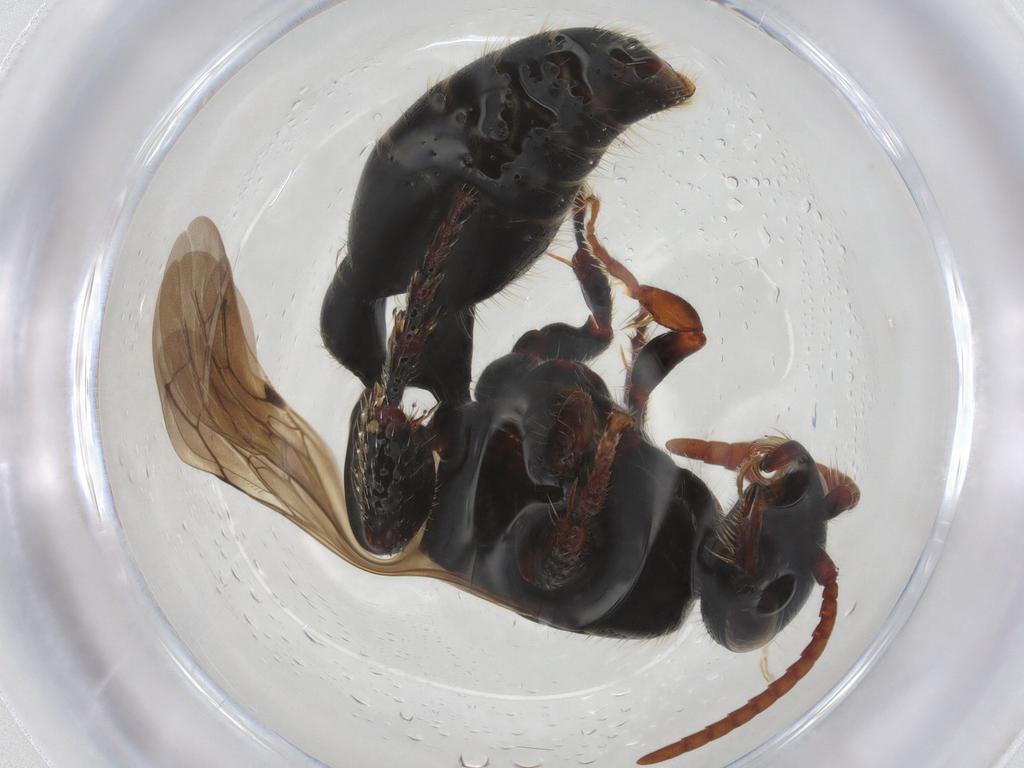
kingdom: Animalia
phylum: Arthropoda
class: Insecta
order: Hymenoptera
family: Tiphiidae
